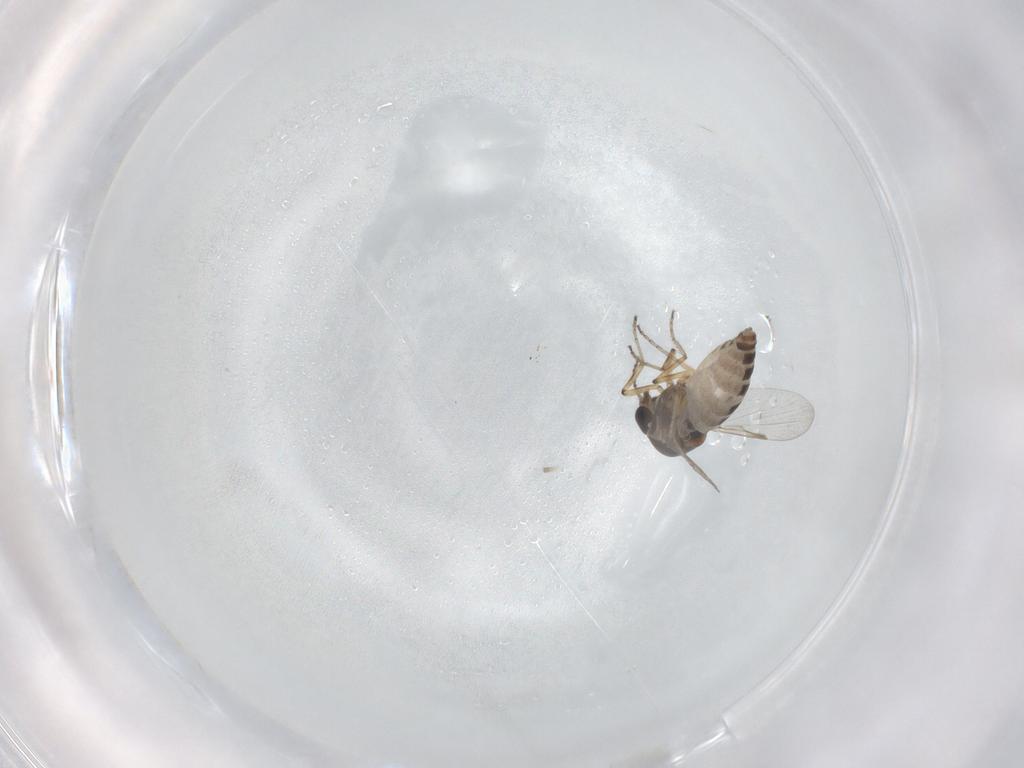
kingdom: Animalia
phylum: Arthropoda
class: Insecta
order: Diptera
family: Ceratopogonidae
